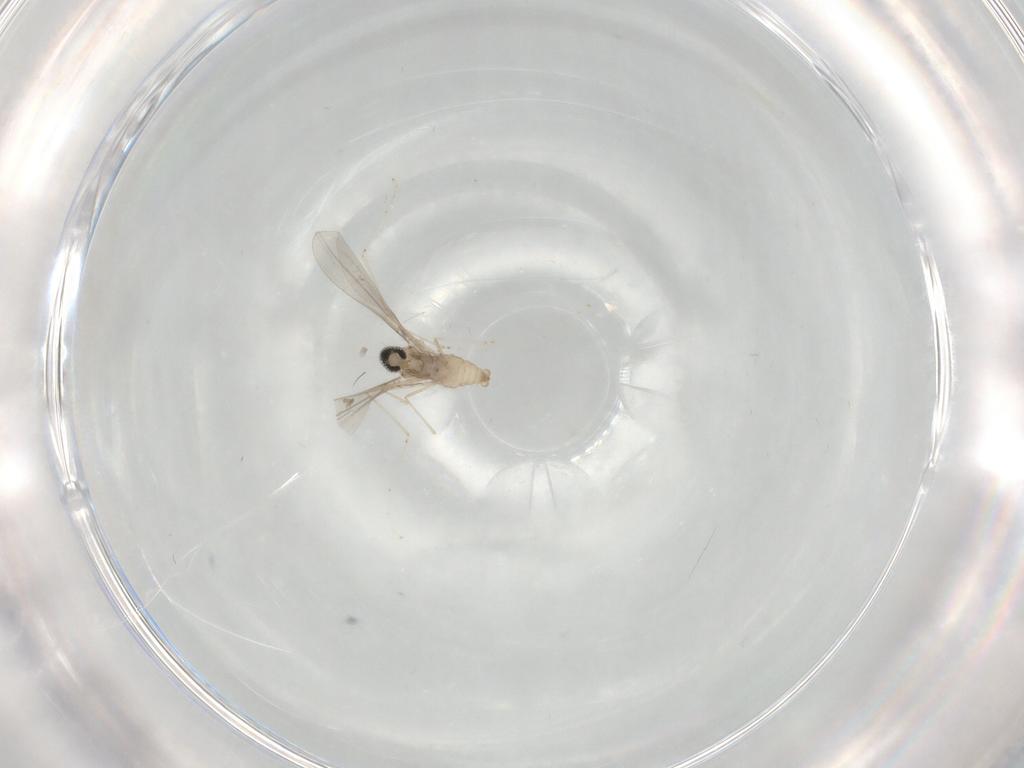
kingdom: Animalia
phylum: Arthropoda
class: Insecta
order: Diptera
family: Cecidomyiidae
